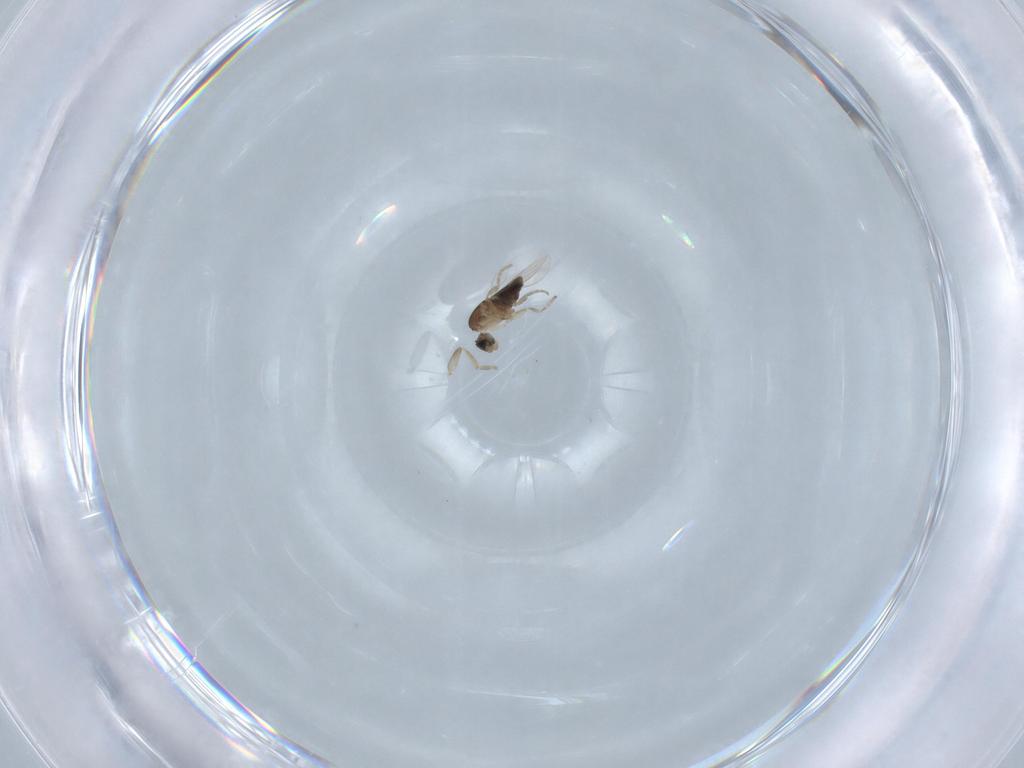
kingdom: Animalia
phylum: Arthropoda
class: Insecta
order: Diptera
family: Phoridae
